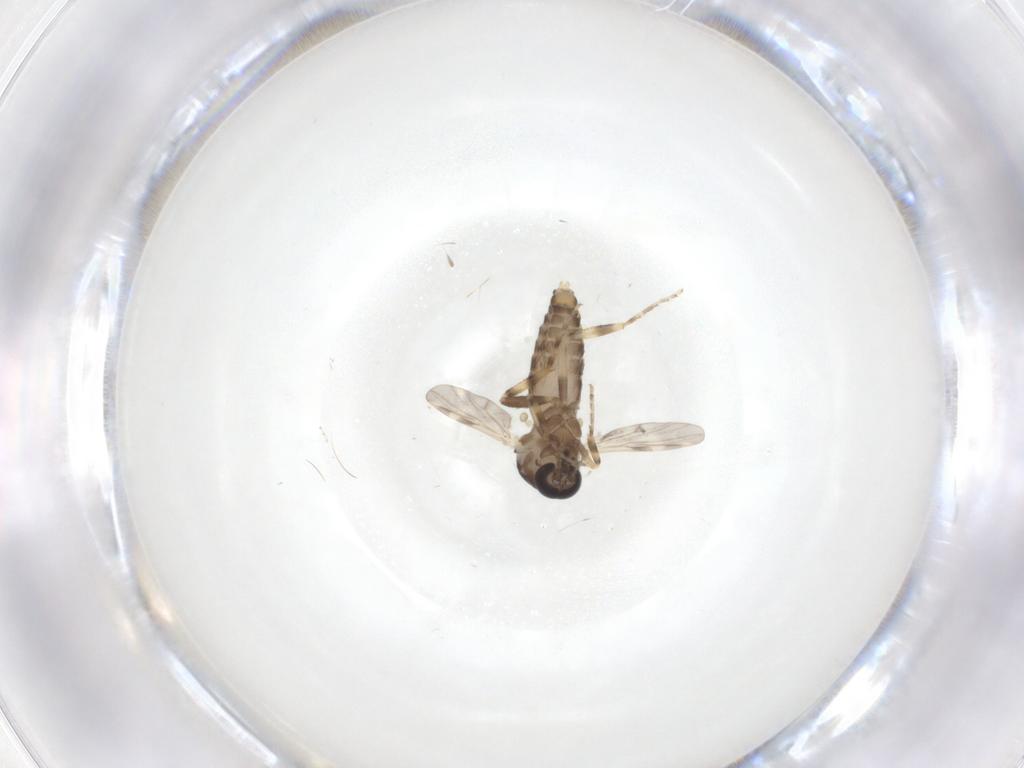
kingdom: Animalia
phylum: Arthropoda
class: Insecta
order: Diptera
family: Ceratopogonidae
